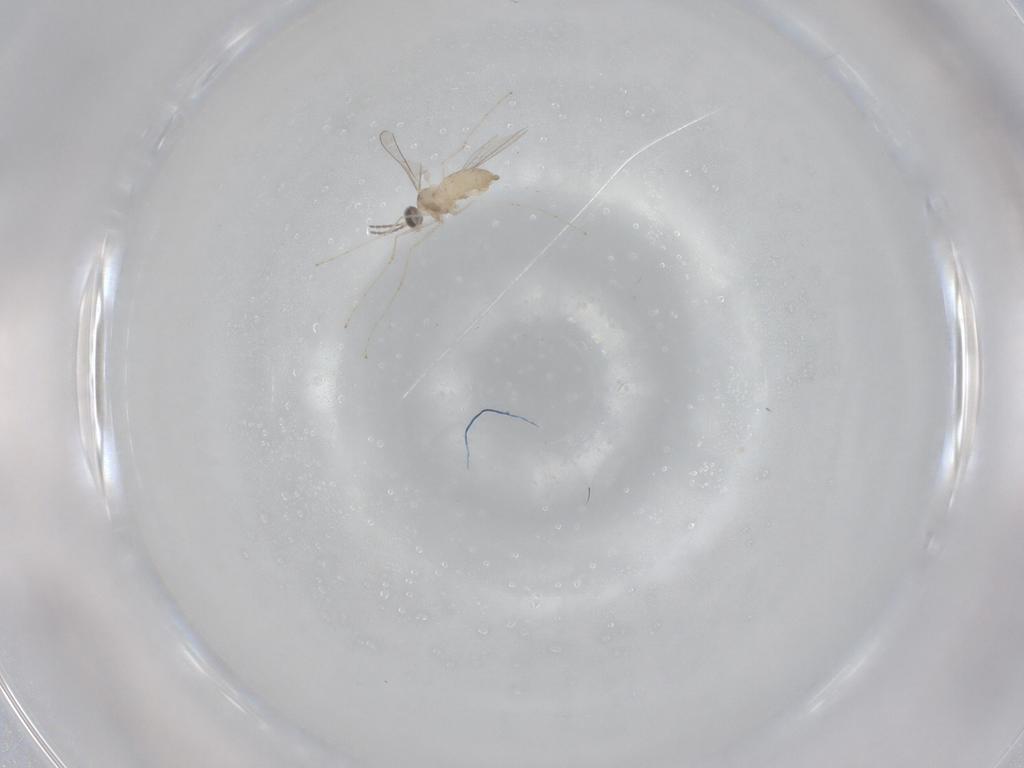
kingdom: Animalia
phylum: Arthropoda
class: Insecta
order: Diptera
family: Cecidomyiidae
